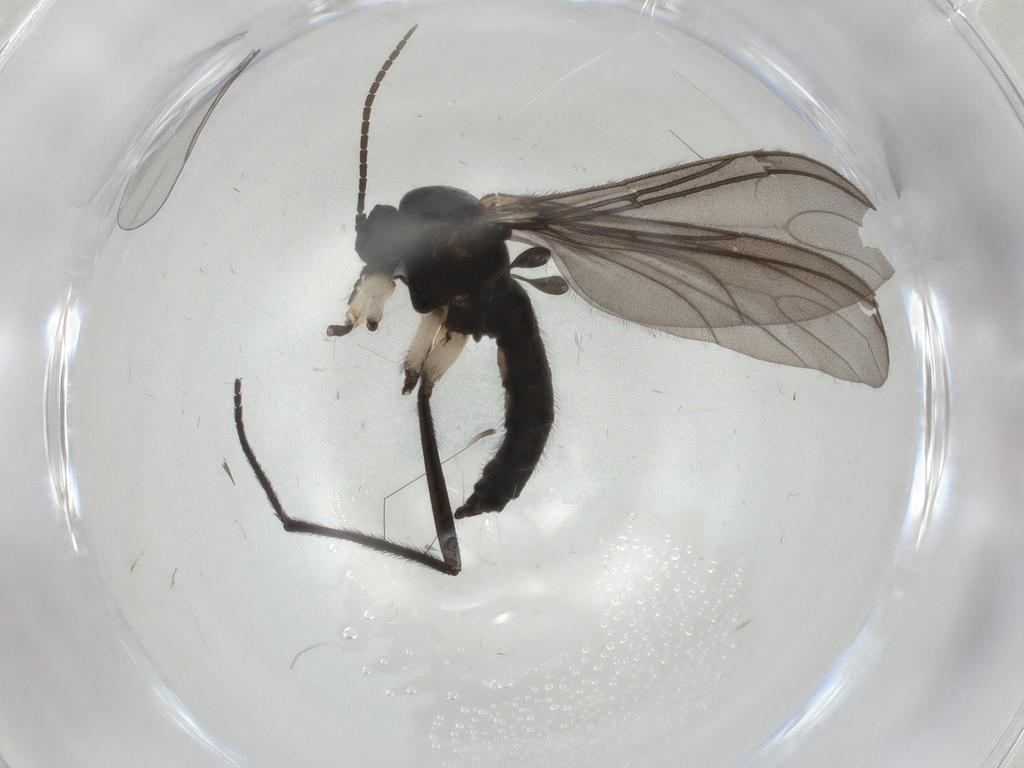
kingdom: Animalia
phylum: Arthropoda
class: Insecta
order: Diptera
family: Sciaridae
